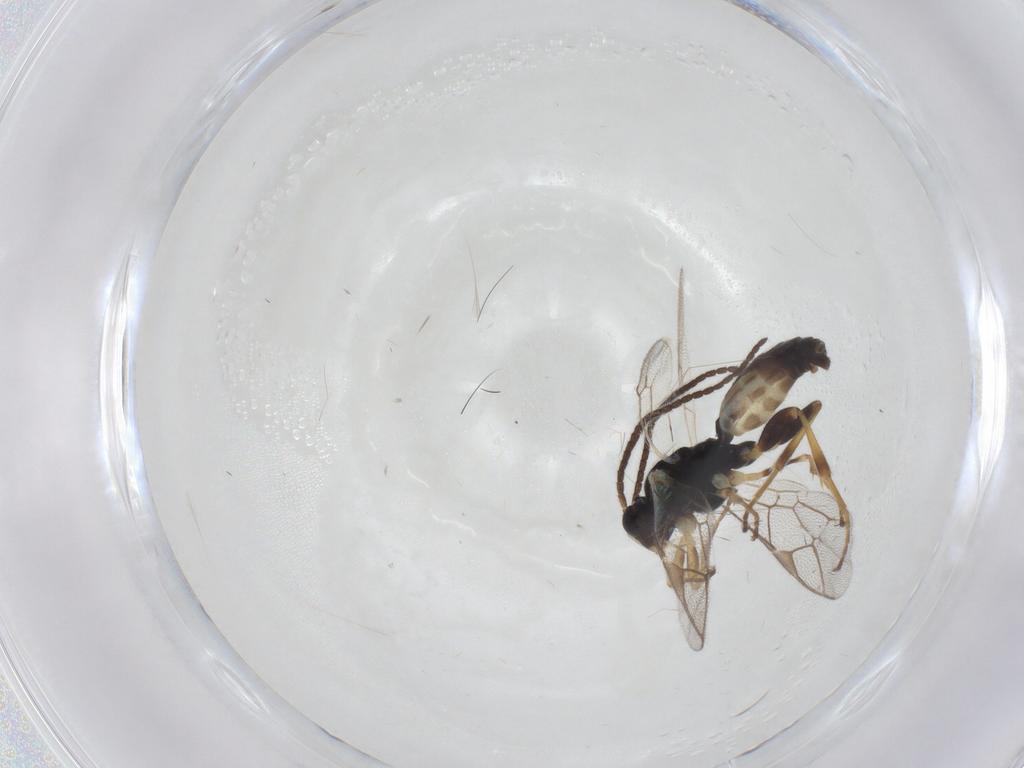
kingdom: Animalia
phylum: Arthropoda
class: Insecta
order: Hymenoptera
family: Ichneumonidae
